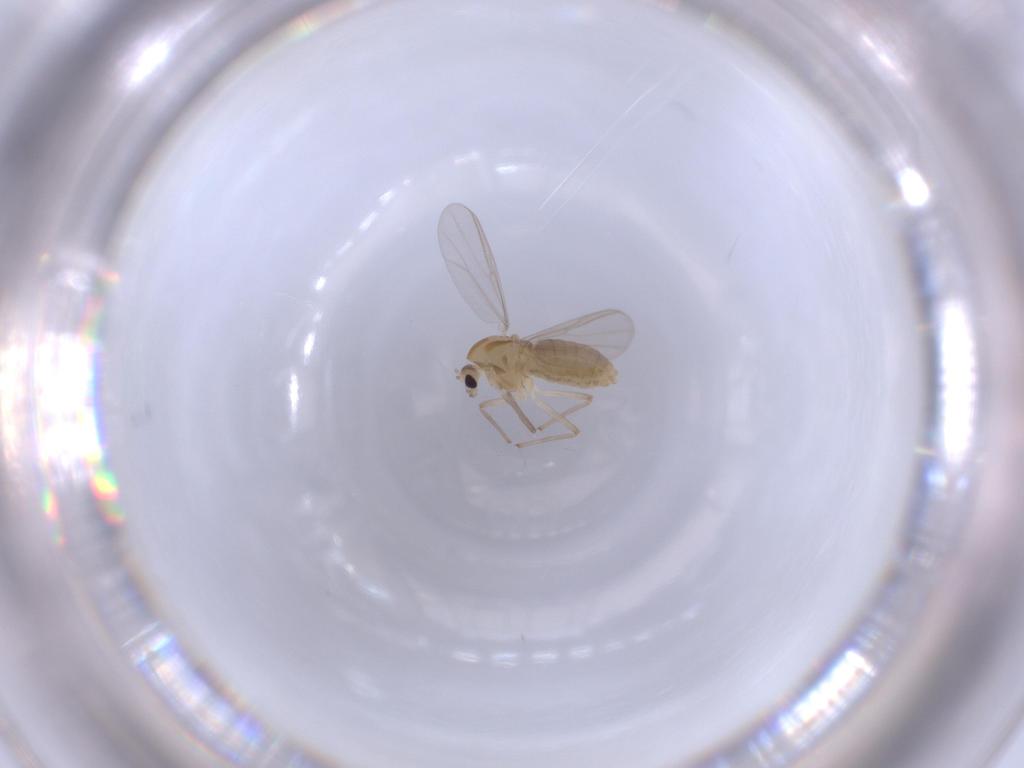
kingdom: Animalia
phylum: Arthropoda
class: Insecta
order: Diptera
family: Chironomidae
